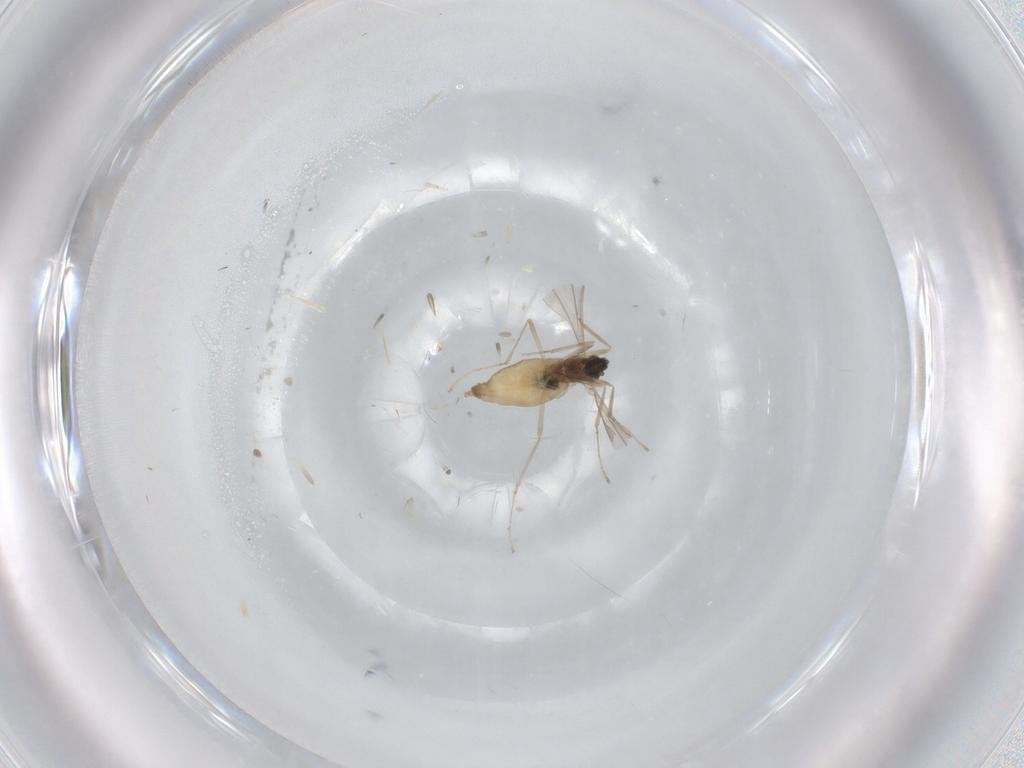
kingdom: Animalia
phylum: Arthropoda
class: Insecta
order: Diptera
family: Cecidomyiidae
